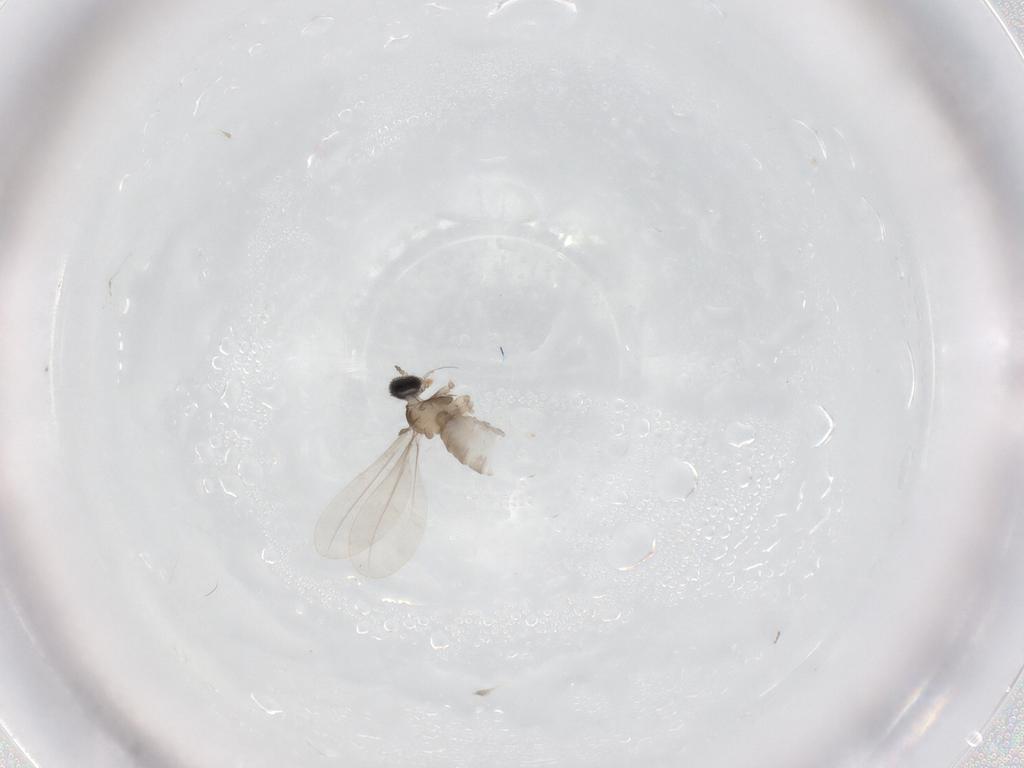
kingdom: Animalia
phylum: Arthropoda
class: Insecta
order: Diptera
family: Cecidomyiidae
